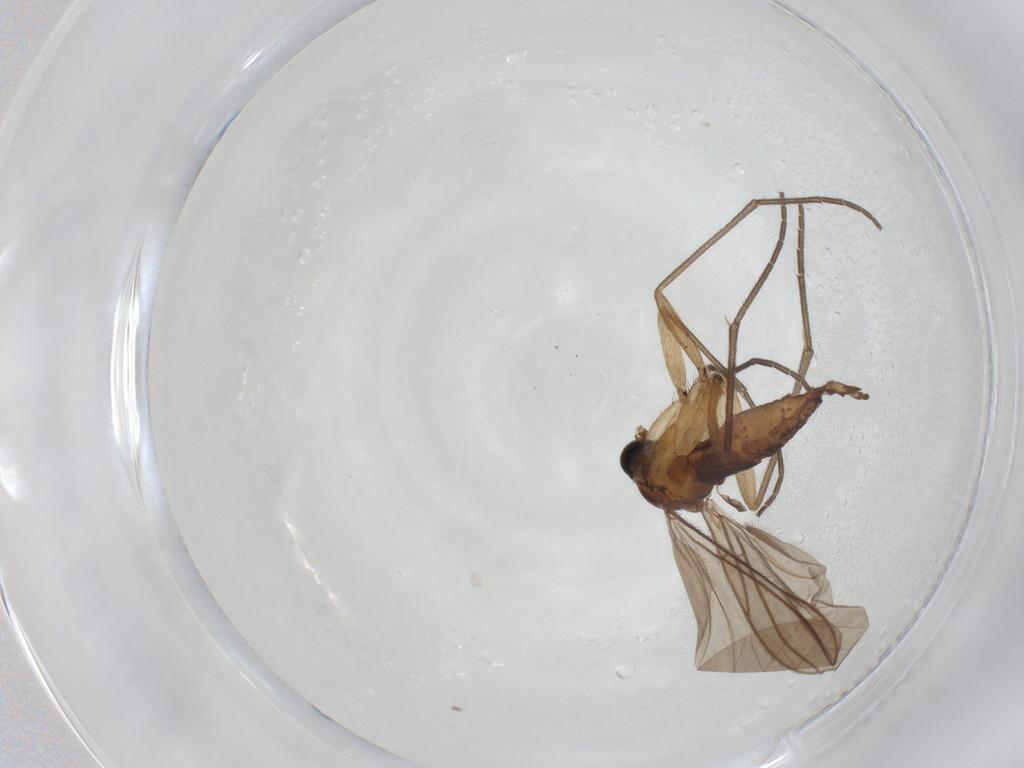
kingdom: Animalia
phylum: Arthropoda
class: Insecta
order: Diptera
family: Sciaridae
